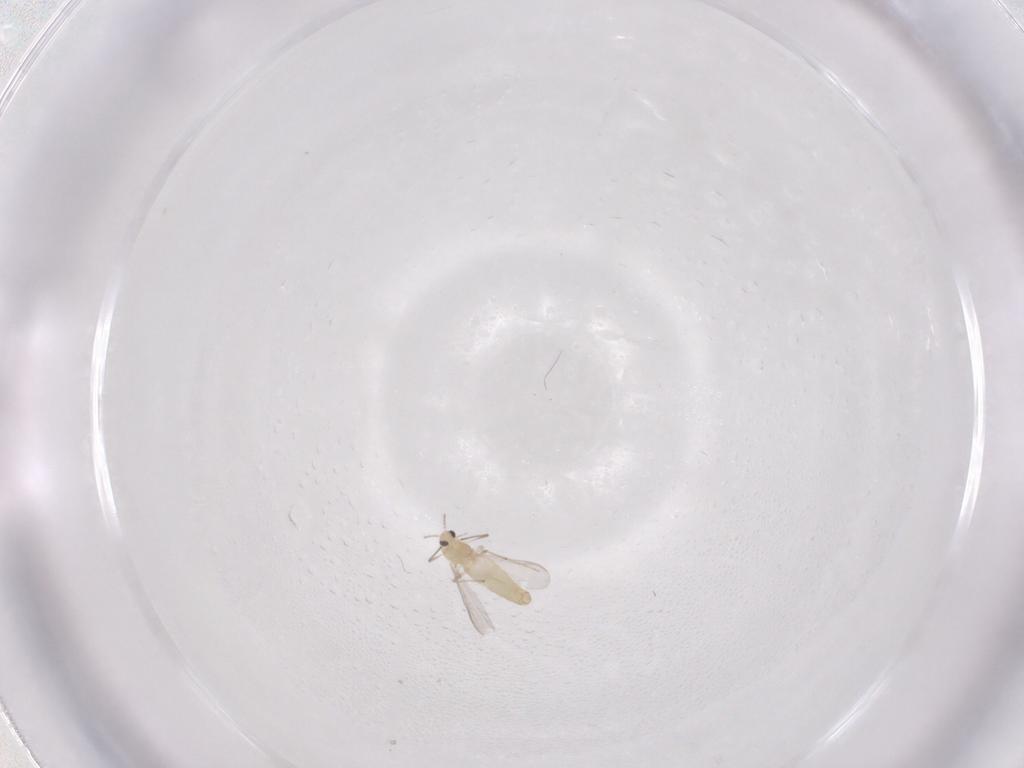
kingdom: Animalia
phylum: Arthropoda
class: Insecta
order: Diptera
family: Chironomidae
